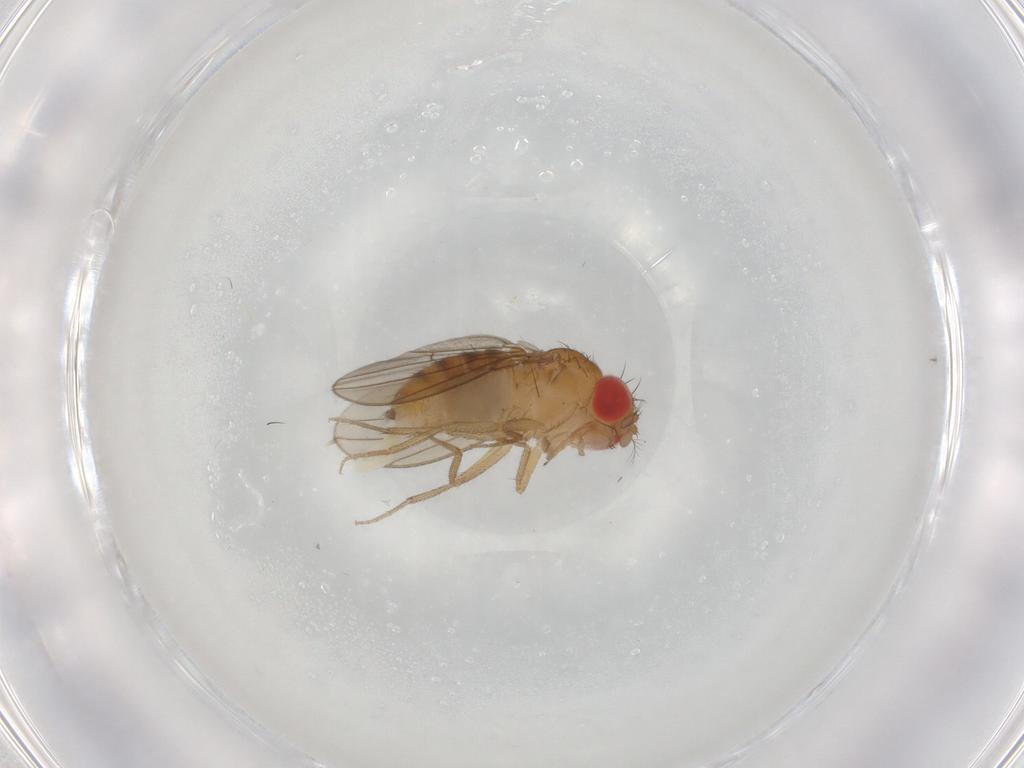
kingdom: Animalia
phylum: Arthropoda
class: Insecta
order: Diptera
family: Drosophilidae
